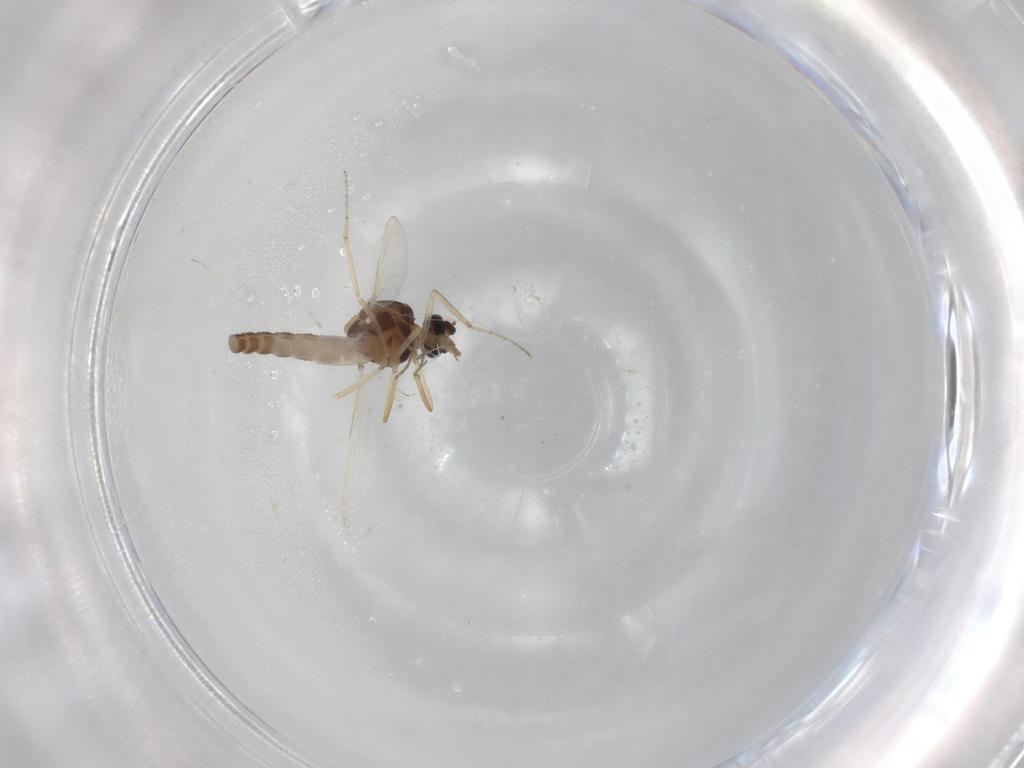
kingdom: Animalia
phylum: Arthropoda
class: Insecta
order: Diptera
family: Ceratopogonidae
